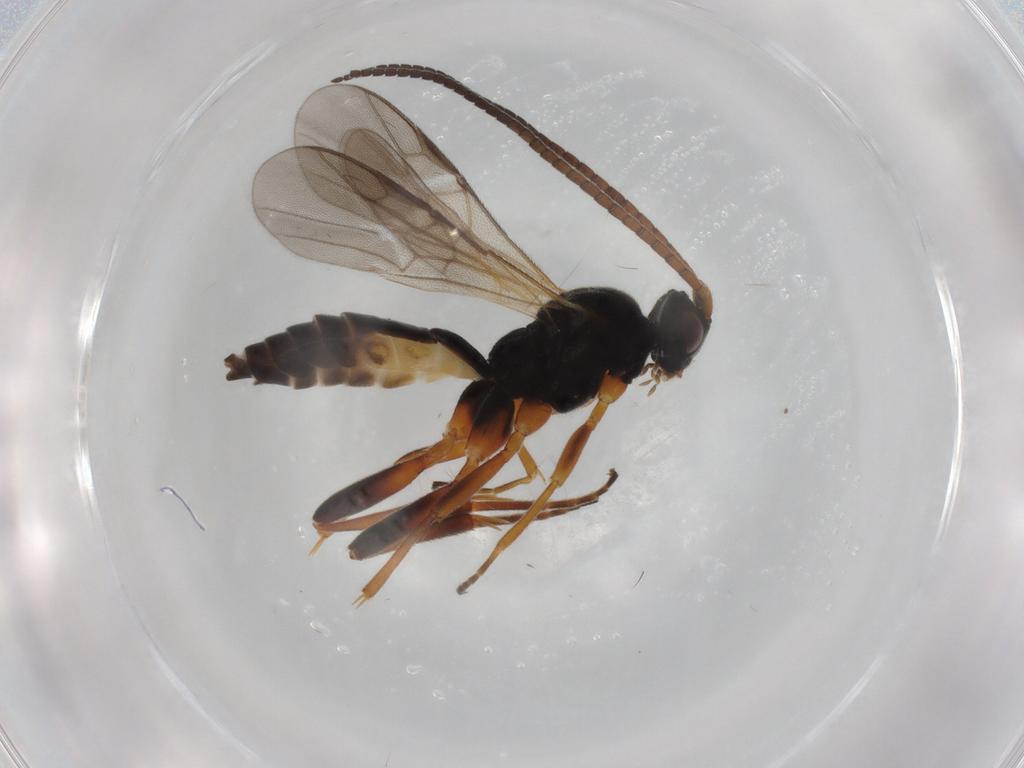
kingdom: Animalia
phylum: Arthropoda
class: Insecta
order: Hymenoptera
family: Braconidae
